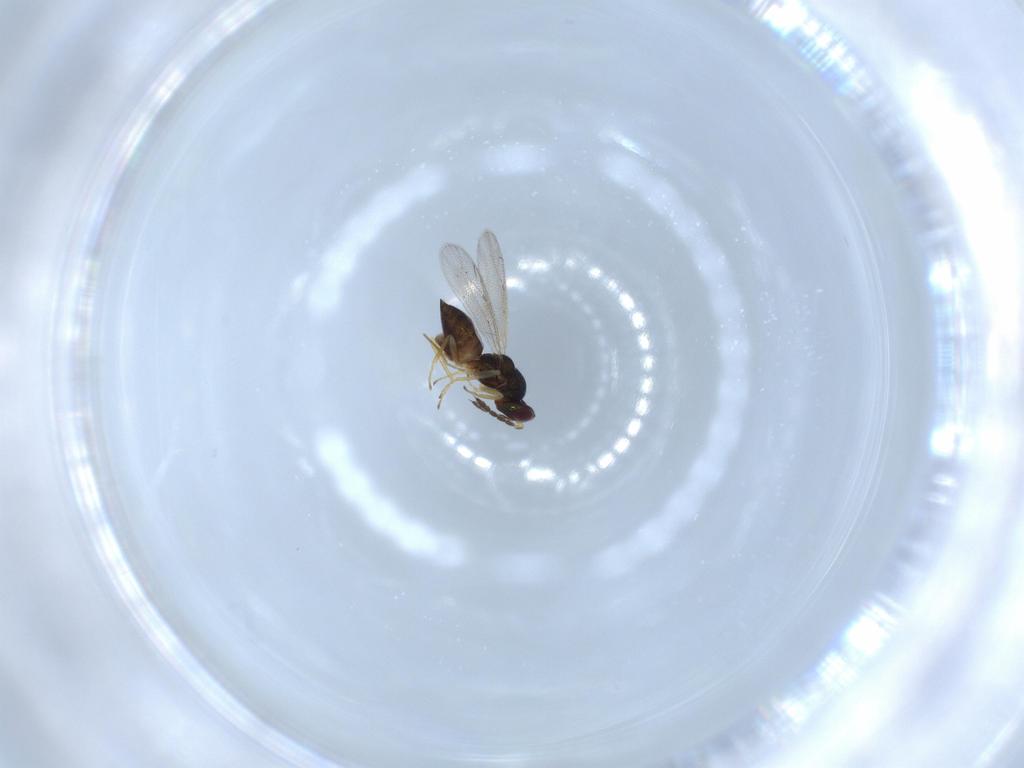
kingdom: Animalia
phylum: Arthropoda
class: Insecta
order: Hymenoptera
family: Eulophidae
